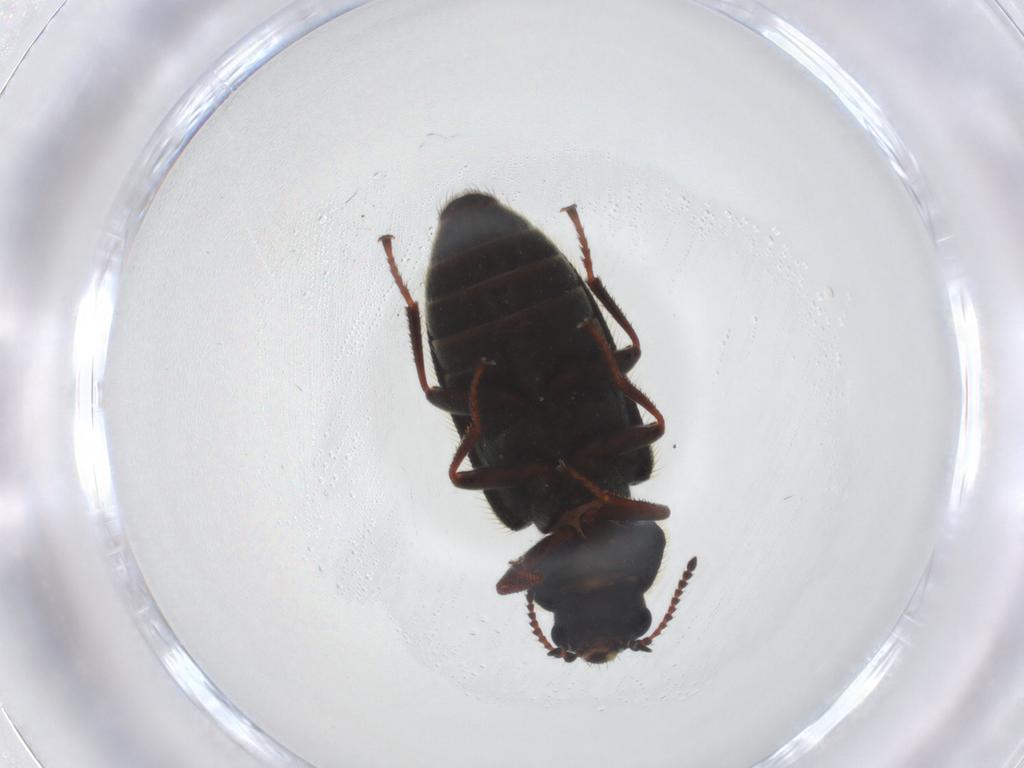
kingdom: Animalia
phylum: Arthropoda
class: Insecta
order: Coleoptera
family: Melyridae
